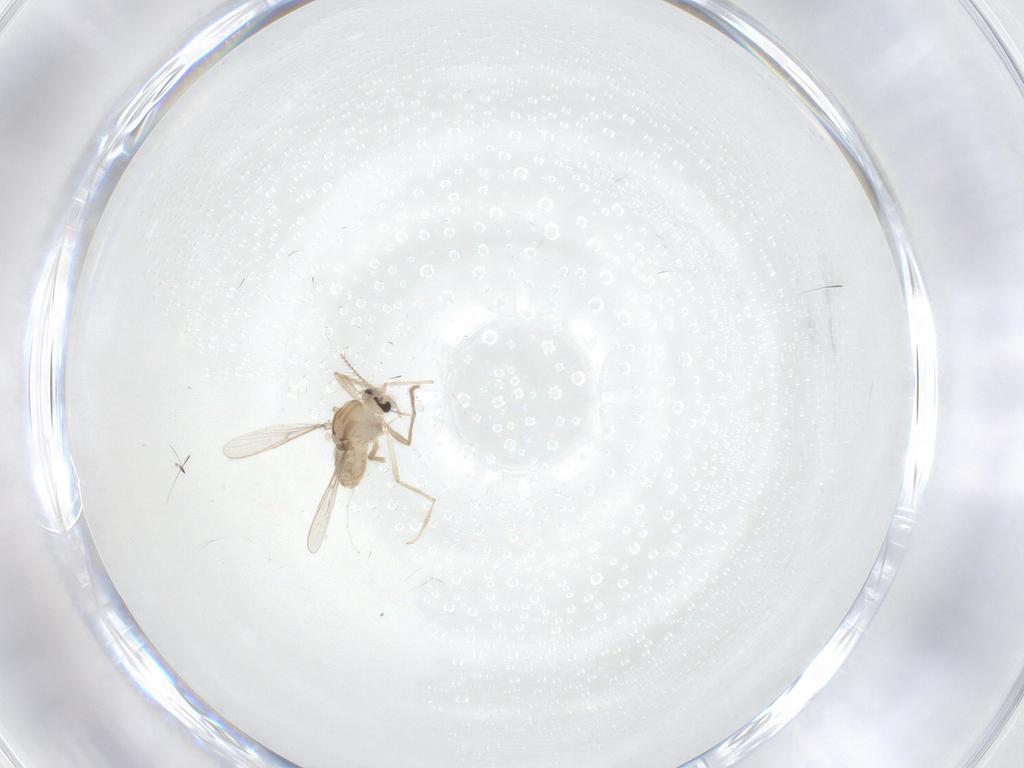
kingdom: Animalia
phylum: Arthropoda
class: Insecta
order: Diptera
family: Chironomidae
